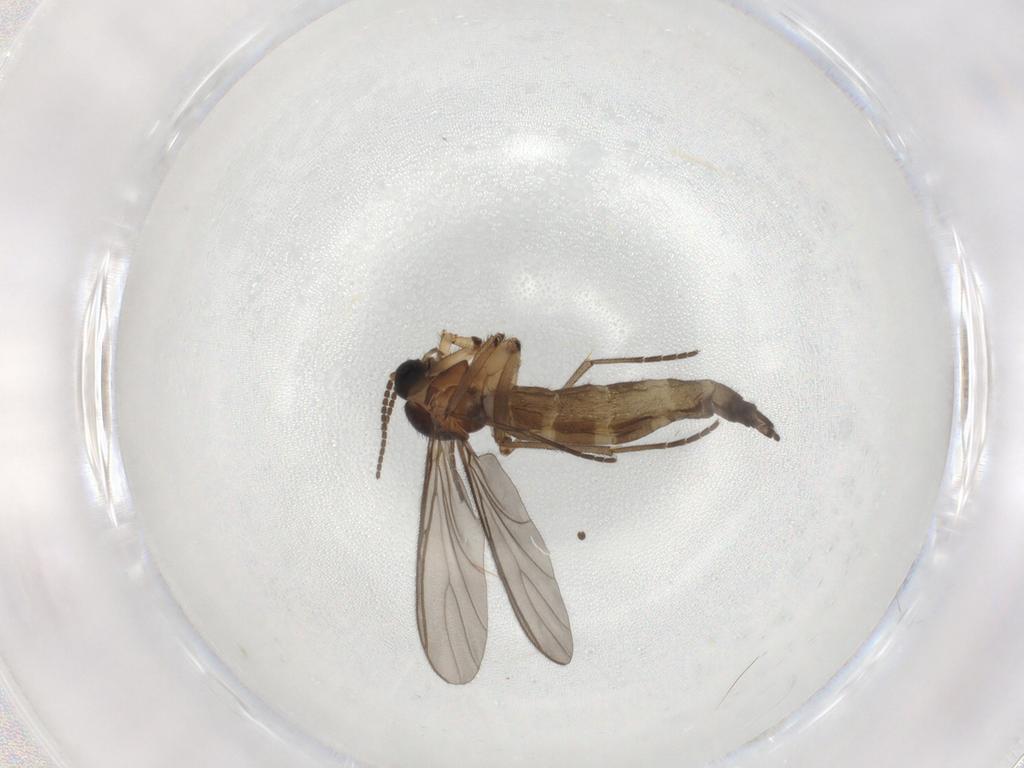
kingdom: Animalia
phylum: Arthropoda
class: Insecta
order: Diptera
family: Sciaridae
